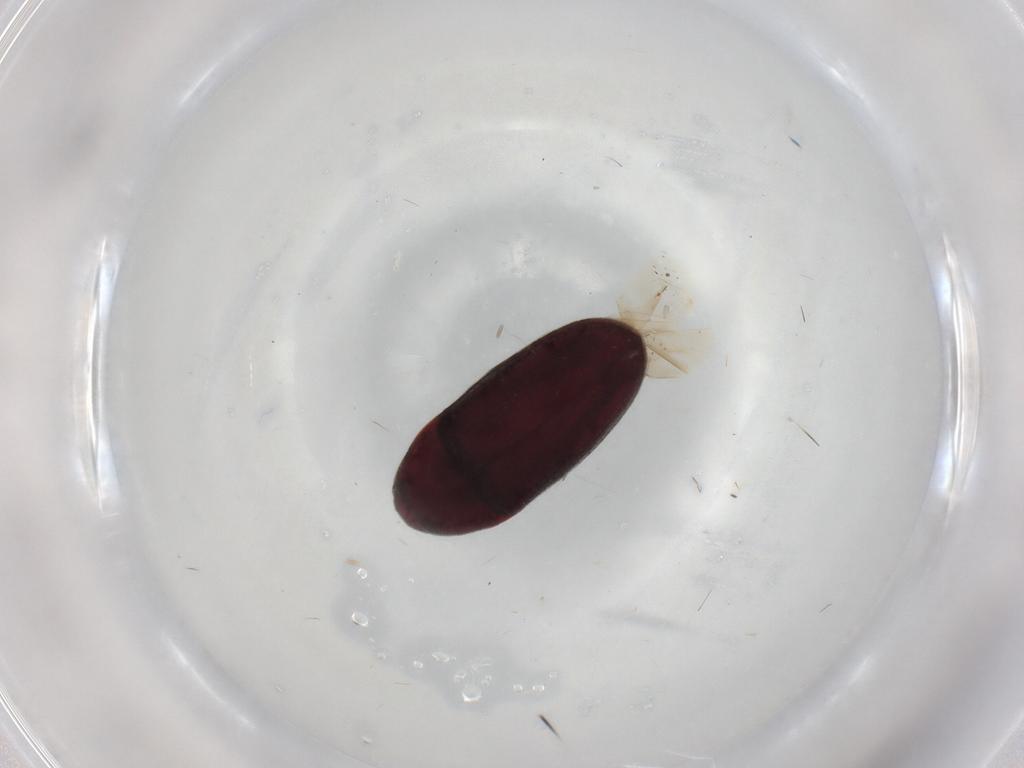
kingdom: Animalia
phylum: Arthropoda
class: Insecta
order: Coleoptera
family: Throscidae
